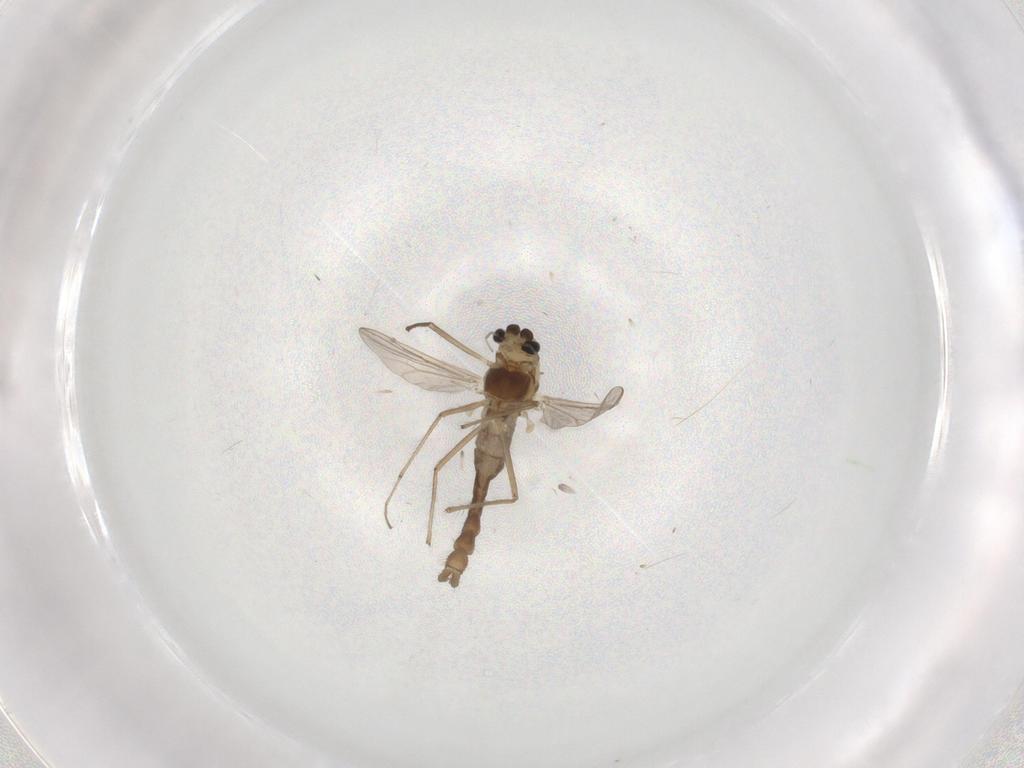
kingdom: Animalia
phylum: Arthropoda
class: Insecta
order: Diptera
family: Chironomidae
